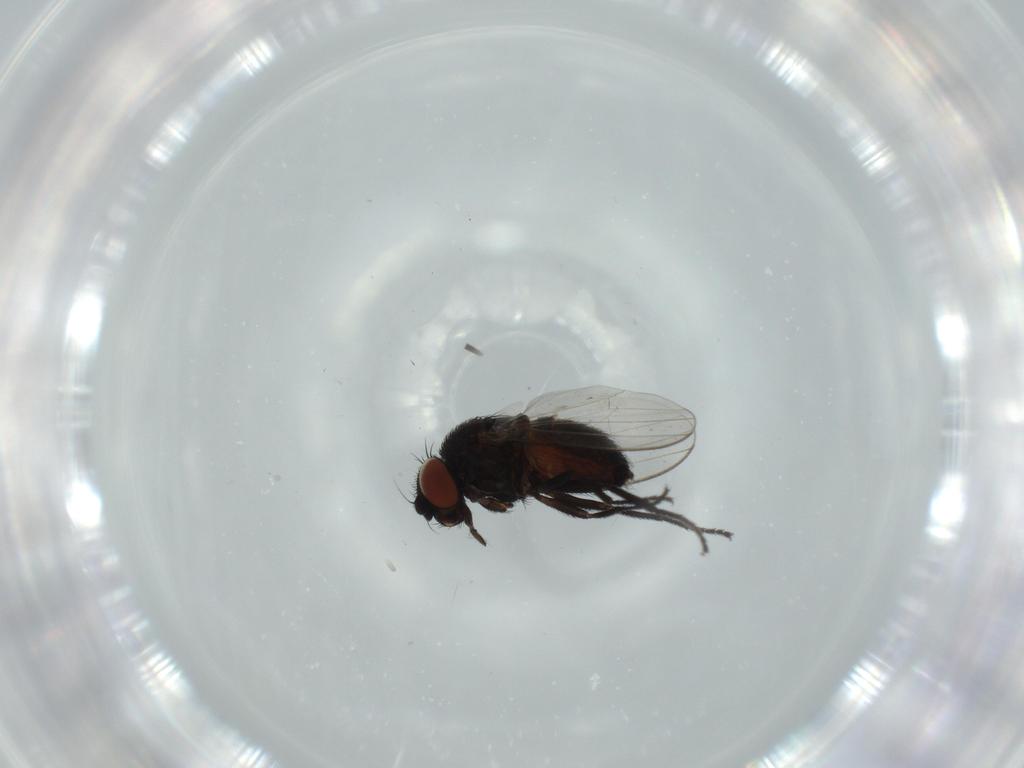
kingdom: Animalia
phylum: Arthropoda
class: Insecta
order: Diptera
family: Milichiidae
